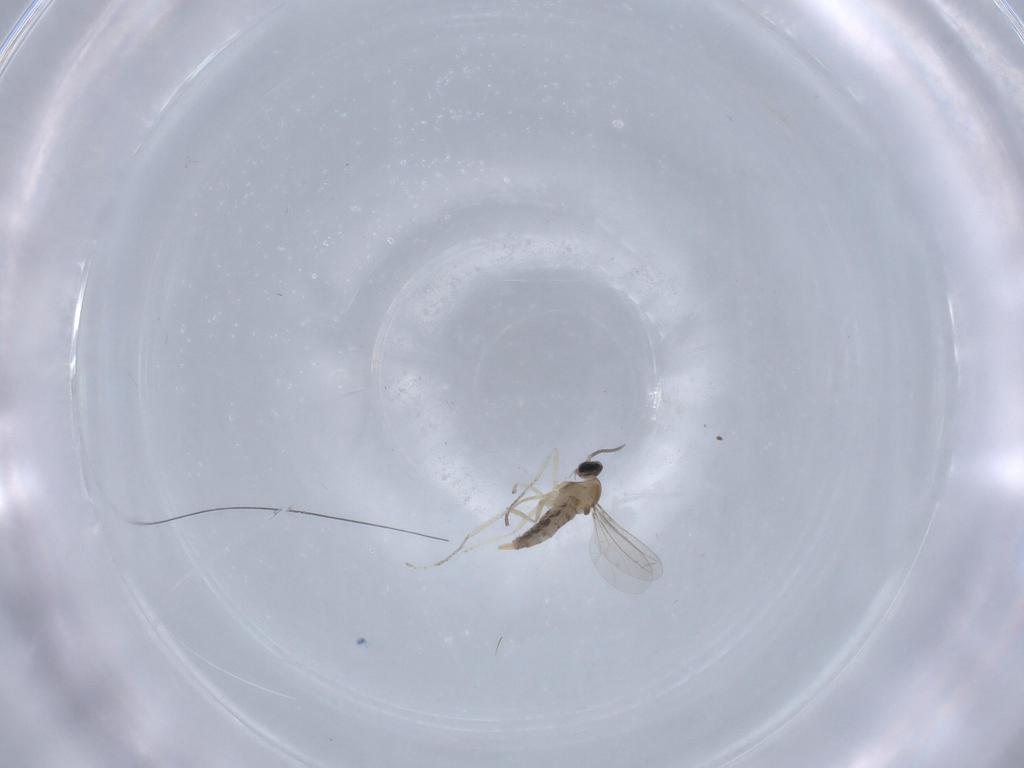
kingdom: Animalia
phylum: Arthropoda
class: Insecta
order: Diptera
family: Cecidomyiidae
